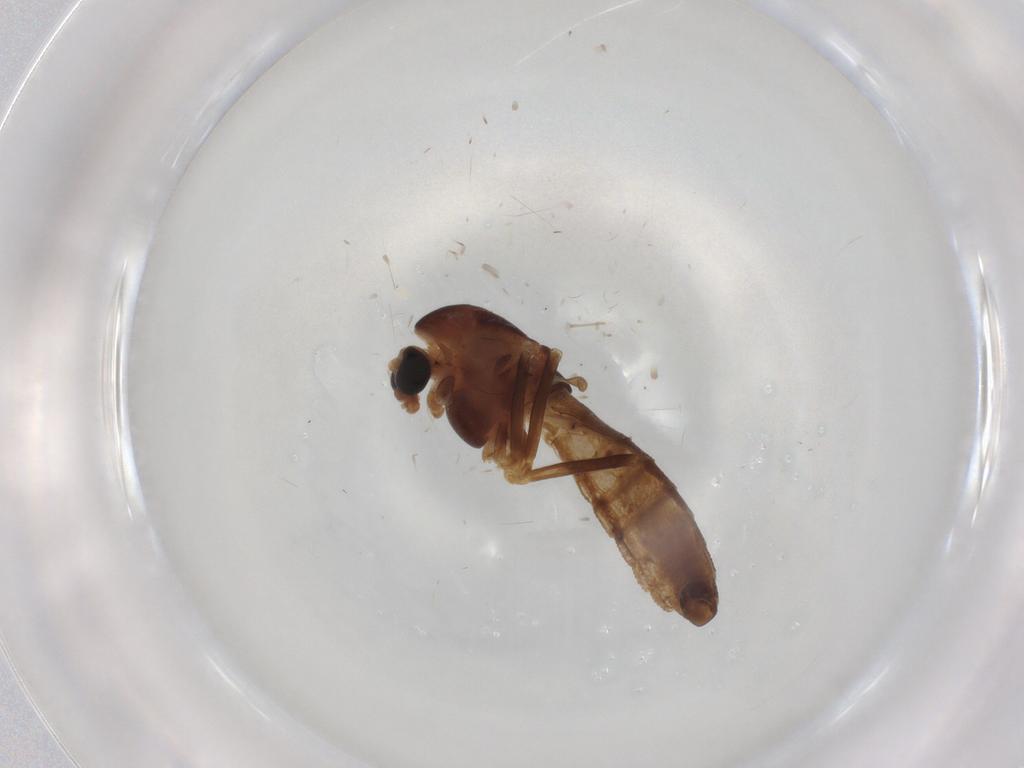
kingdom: Animalia
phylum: Arthropoda
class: Insecta
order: Diptera
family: Muscidae
